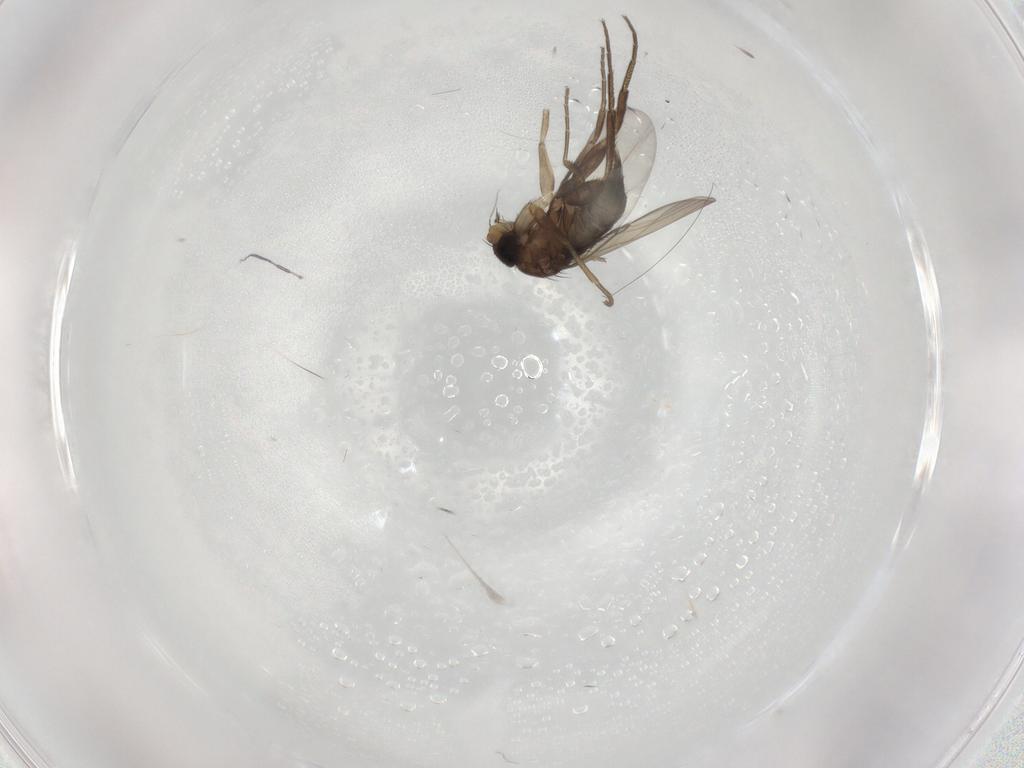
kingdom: Animalia
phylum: Arthropoda
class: Insecta
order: Diptera
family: Phoridae
